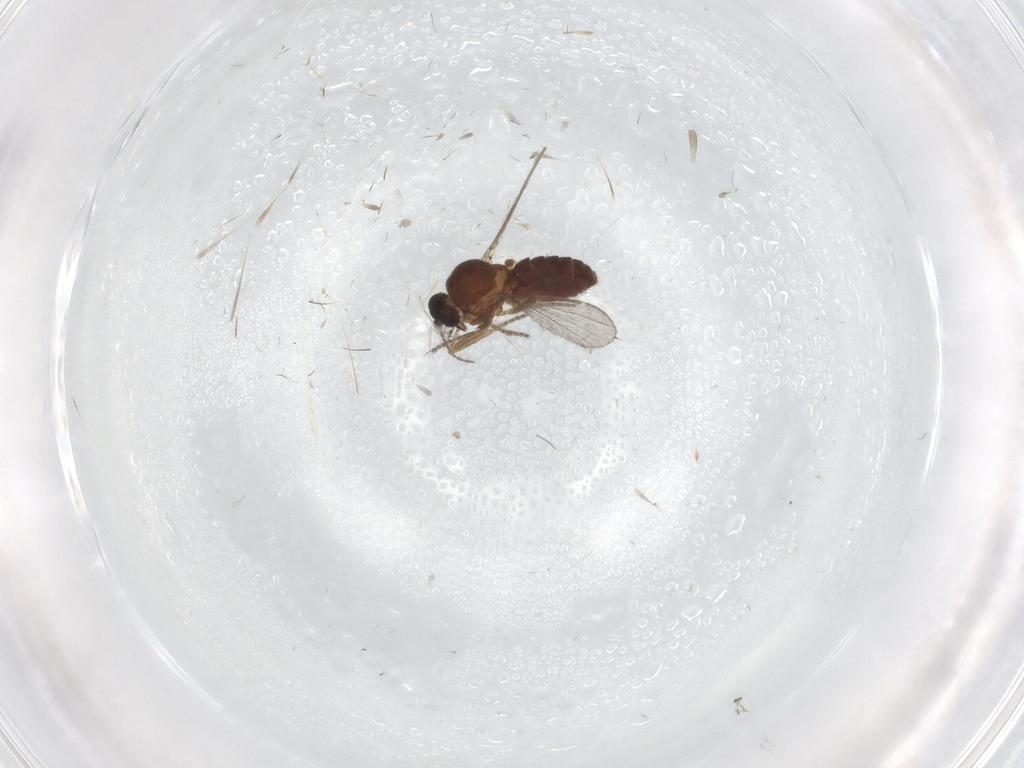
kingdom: Animalia
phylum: Arthropoda
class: Insecta
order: Diptera
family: Ceratopogonidae
